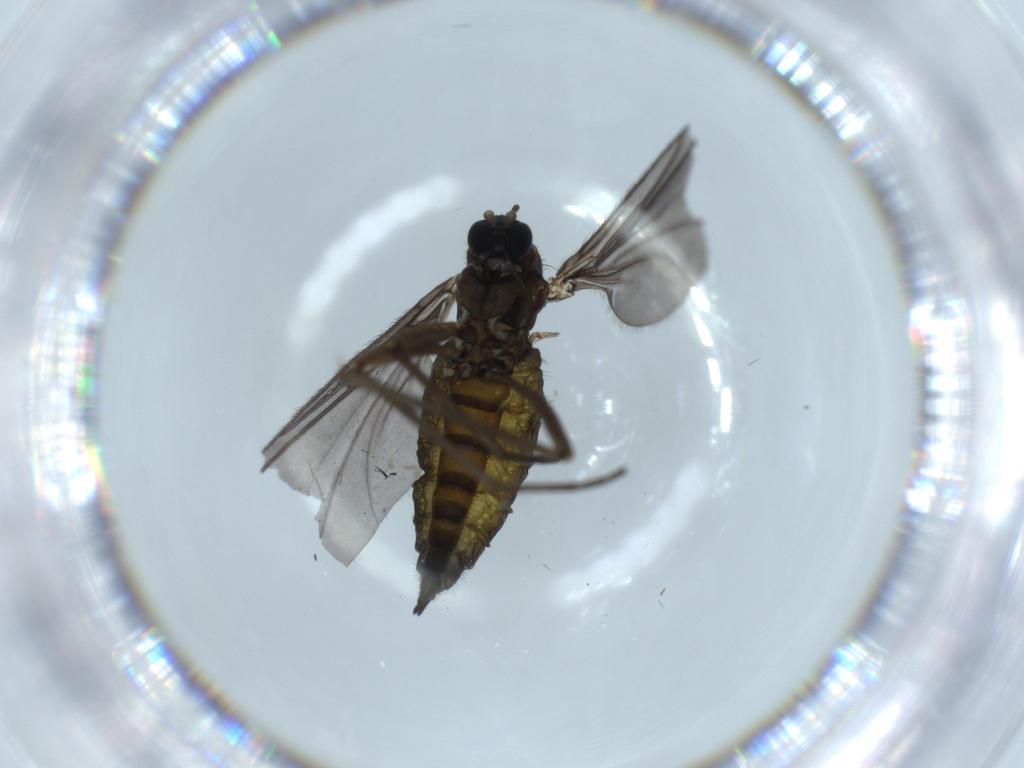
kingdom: Animalia
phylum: Arthropoda
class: Insecta
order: Diptera
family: Sciaridae
